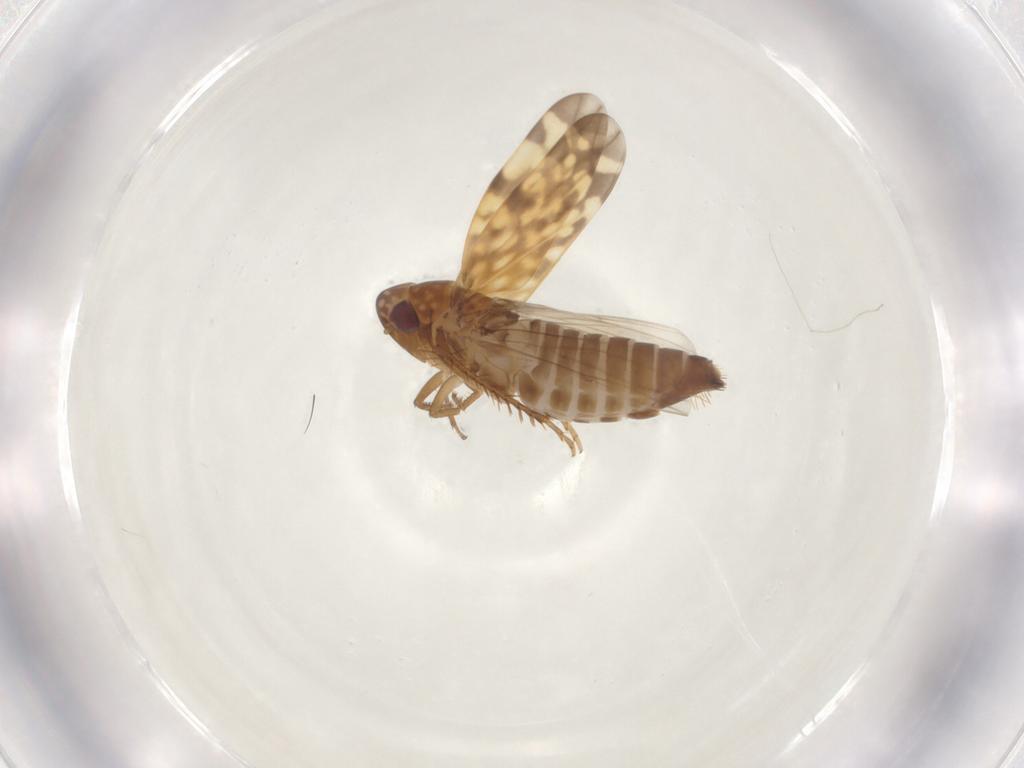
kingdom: Animalia
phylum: Arthropoda
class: Insecta
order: Hemiptera
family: Cicadellidae
